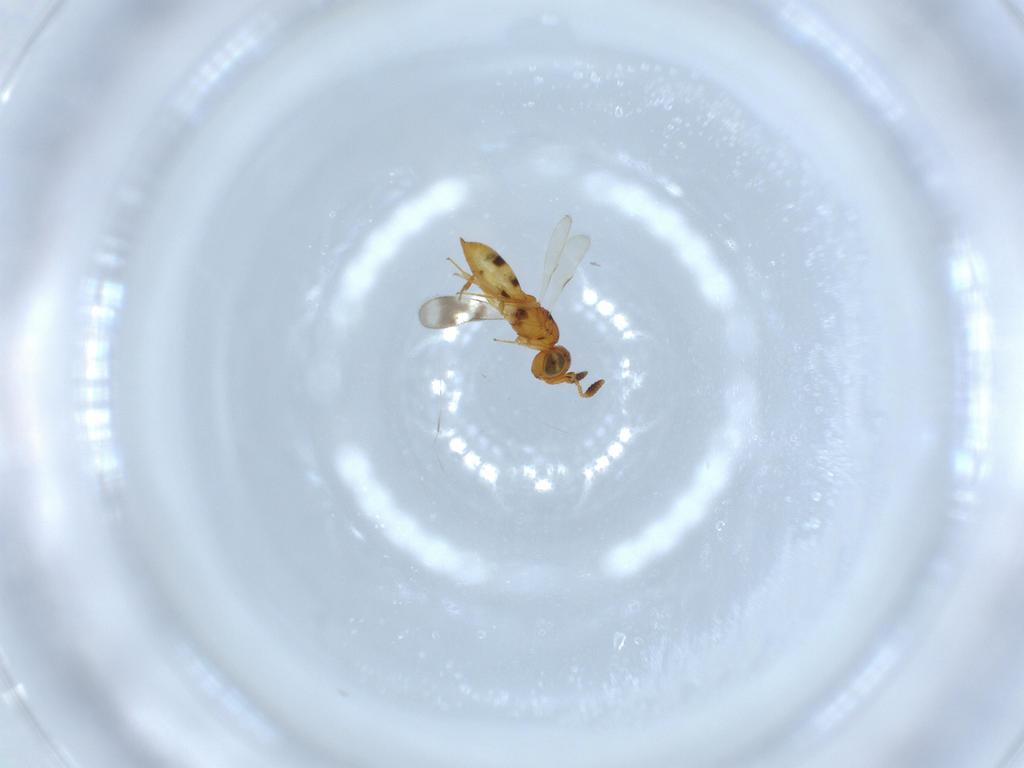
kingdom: Animalia
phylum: Arthropoda
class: Insecta
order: Hymenoptera
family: Scelionidae
